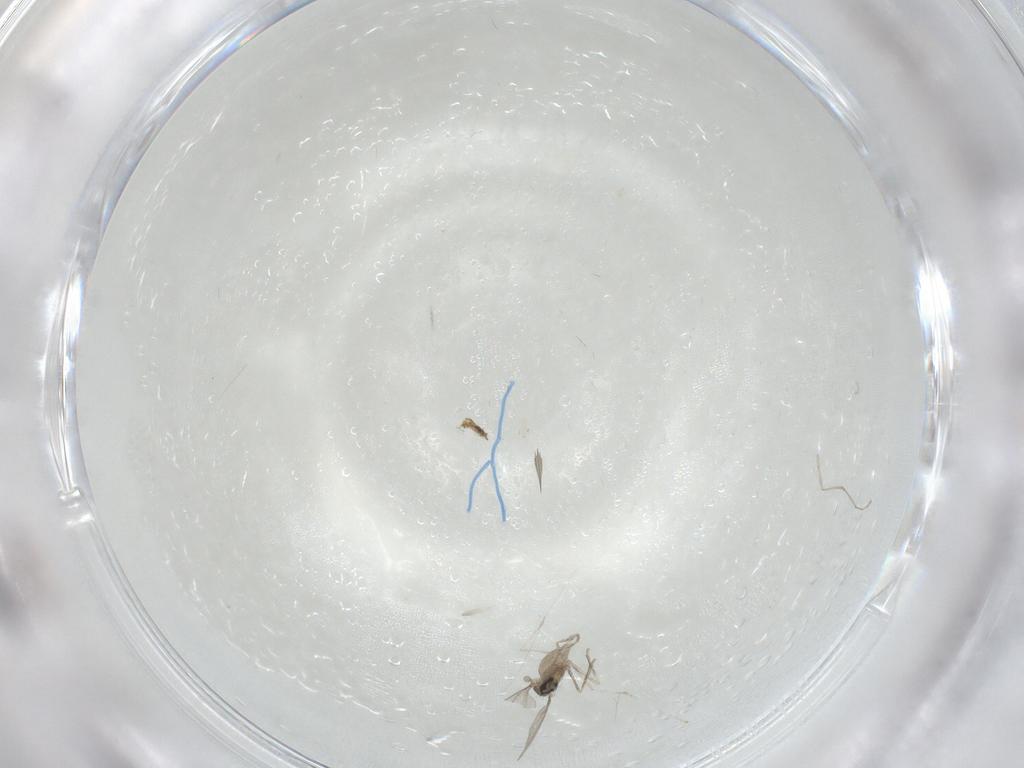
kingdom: Animalia
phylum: Arthropoda
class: Insecta
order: Diptera
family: Cecidomyiidae
